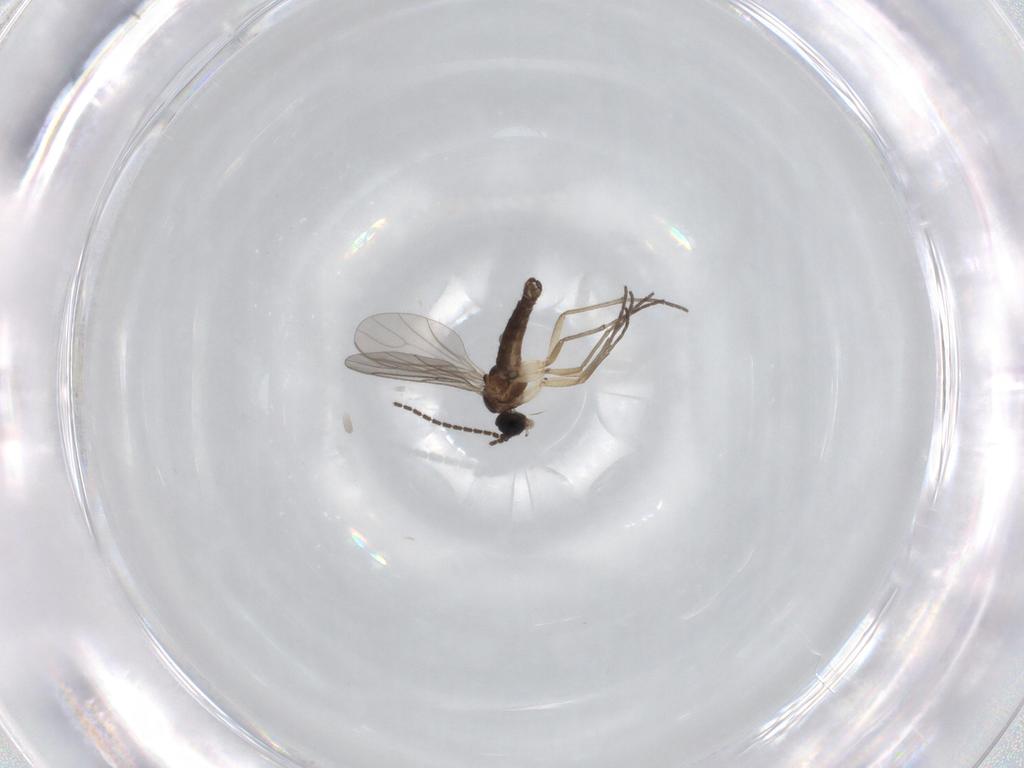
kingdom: Animalia
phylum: Arthropoda
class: Insecta
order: Diptera
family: Sciaridae
